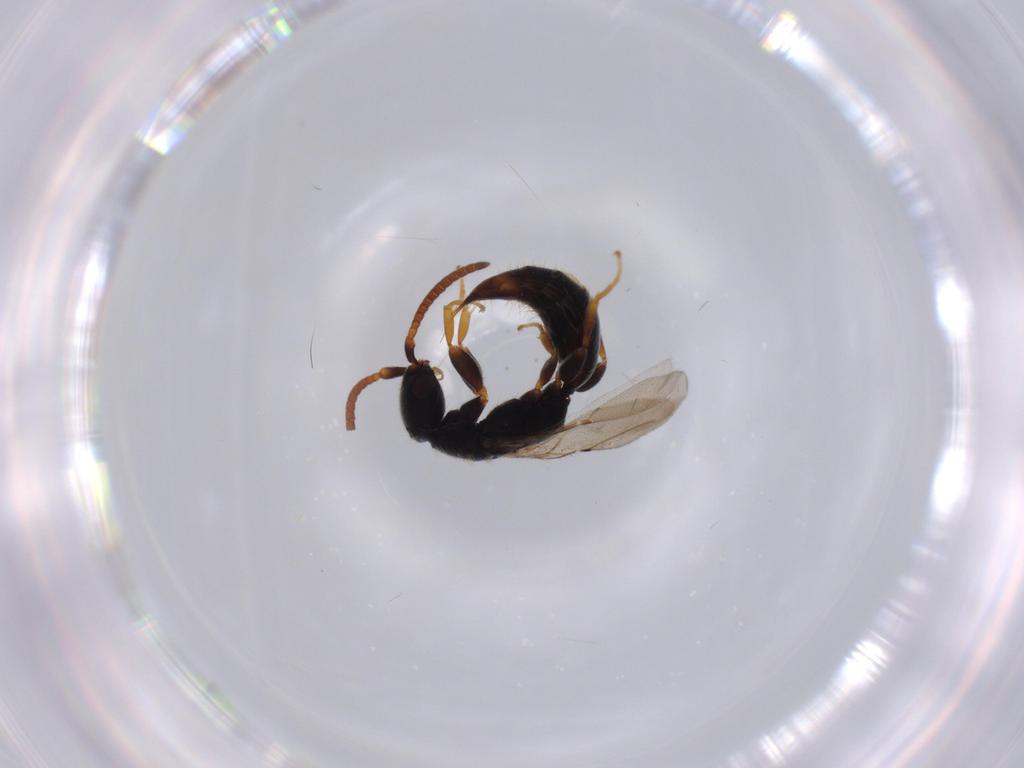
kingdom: Animalia
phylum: Arthropoda
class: Insecta
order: Hymenoptera
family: Bethylidae
